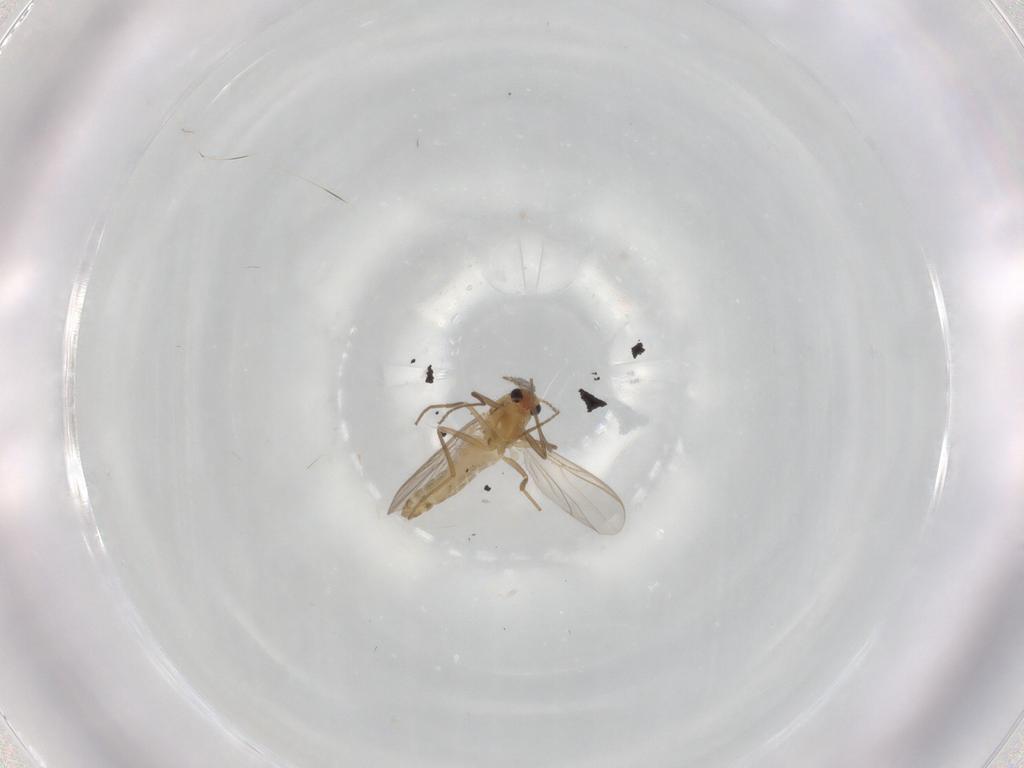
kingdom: Animalia
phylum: Arthropoda
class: Insecta
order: Diptera
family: Chironomidae
